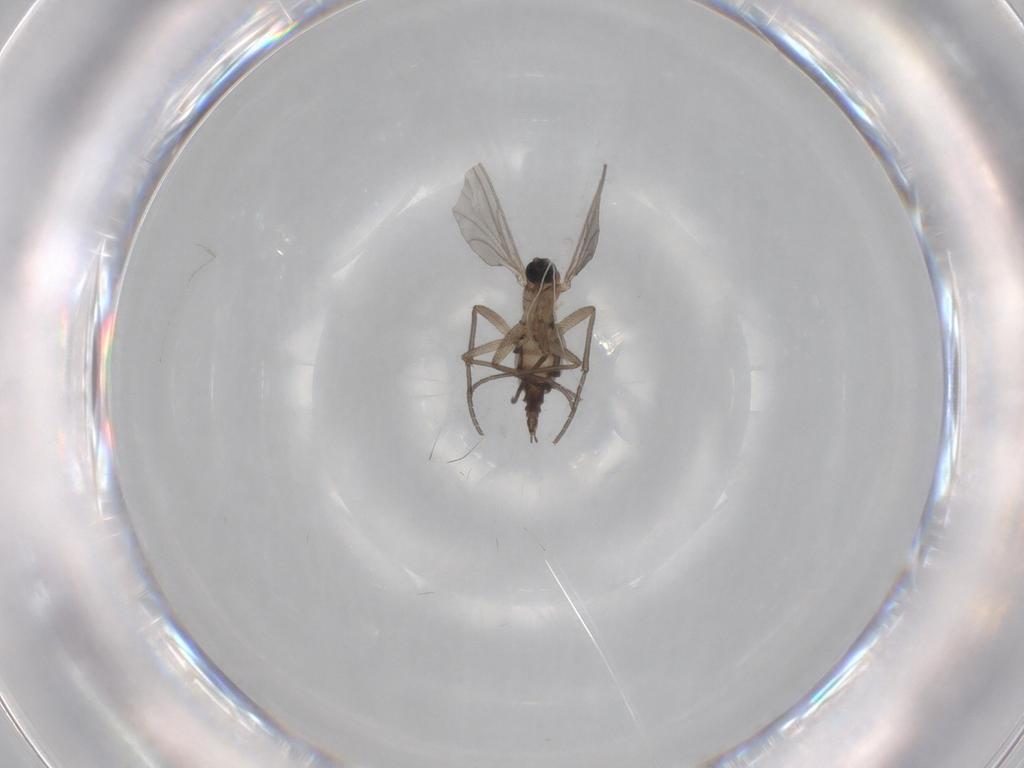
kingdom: Animalia
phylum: Arthropoda
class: Insecta
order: Diptera
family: Sciaridae
